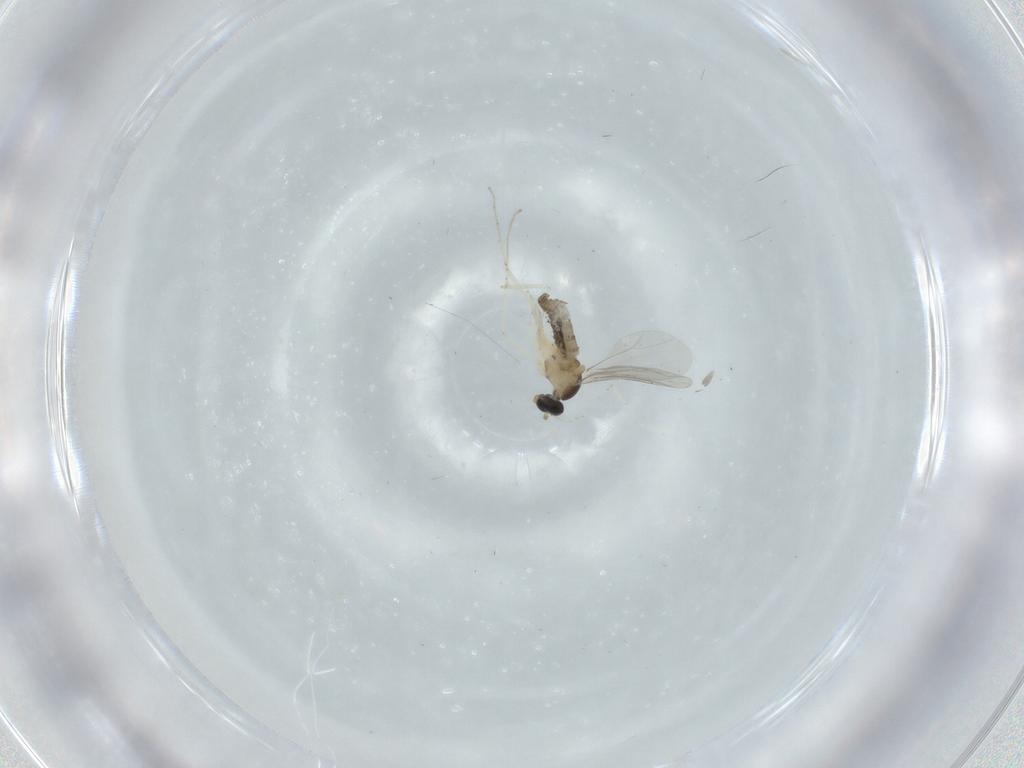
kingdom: Animalia
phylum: Arthropoda
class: Insecta
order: Diptera
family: Cecidomyiidae
